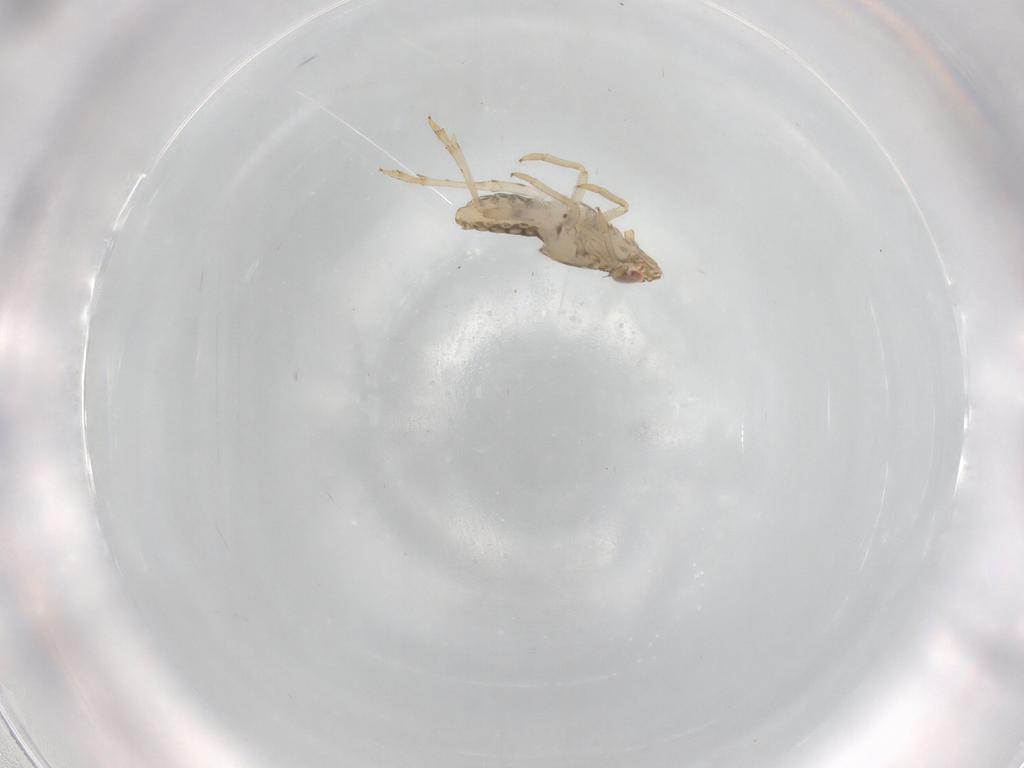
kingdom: Animalia
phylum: Arthropoda
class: Insecta
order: Hemiptera
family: Delphacidae
